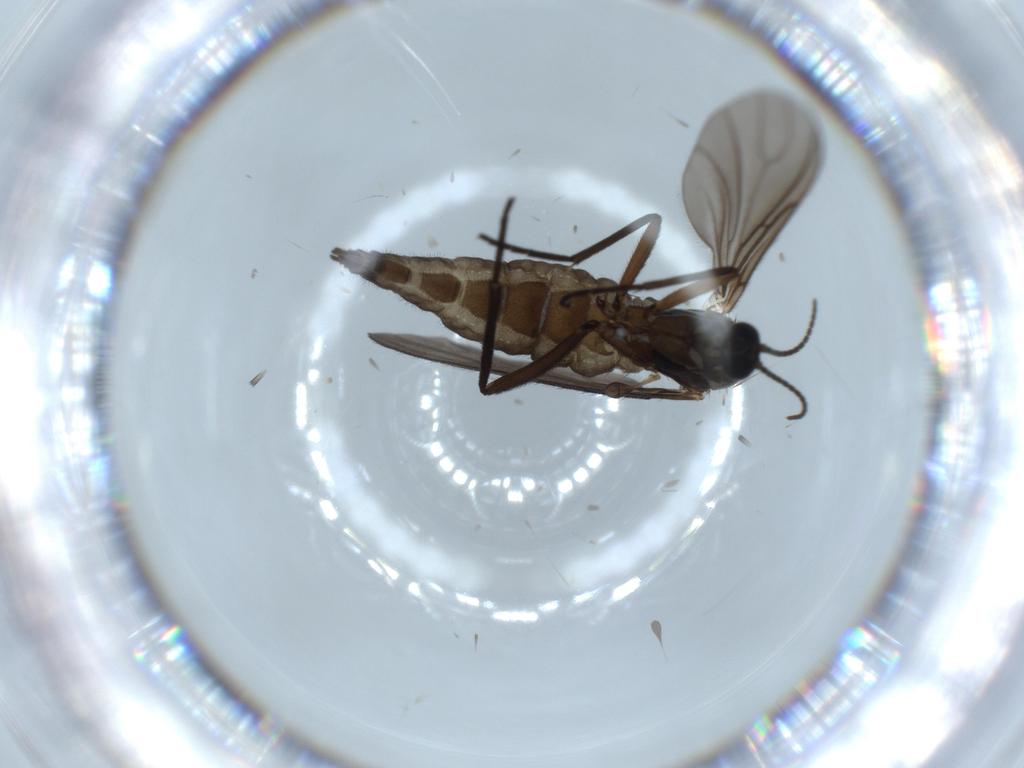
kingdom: Animalia
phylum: Arthropoda
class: Insecta
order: Diptera
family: Sciaridae
